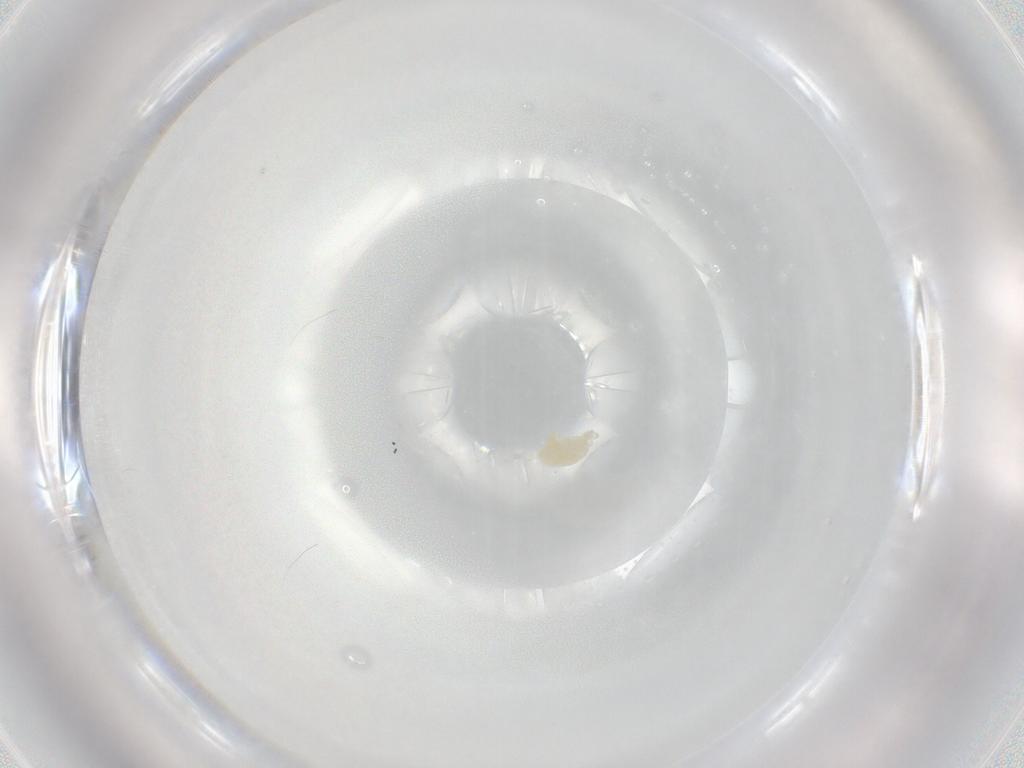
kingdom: Animalia
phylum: Arthropoda
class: Arachnida
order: Trombidiformes
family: Eupodidae
